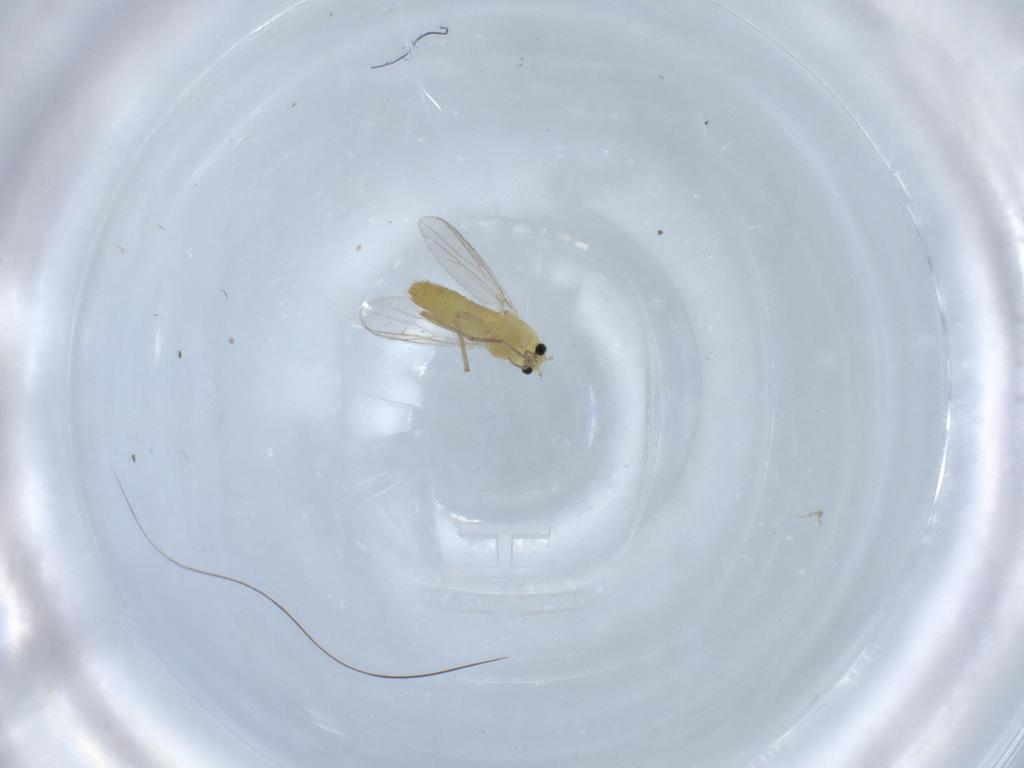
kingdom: Animalia
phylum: Arthropoda
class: Insecta
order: Diptera
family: Chironomidae
